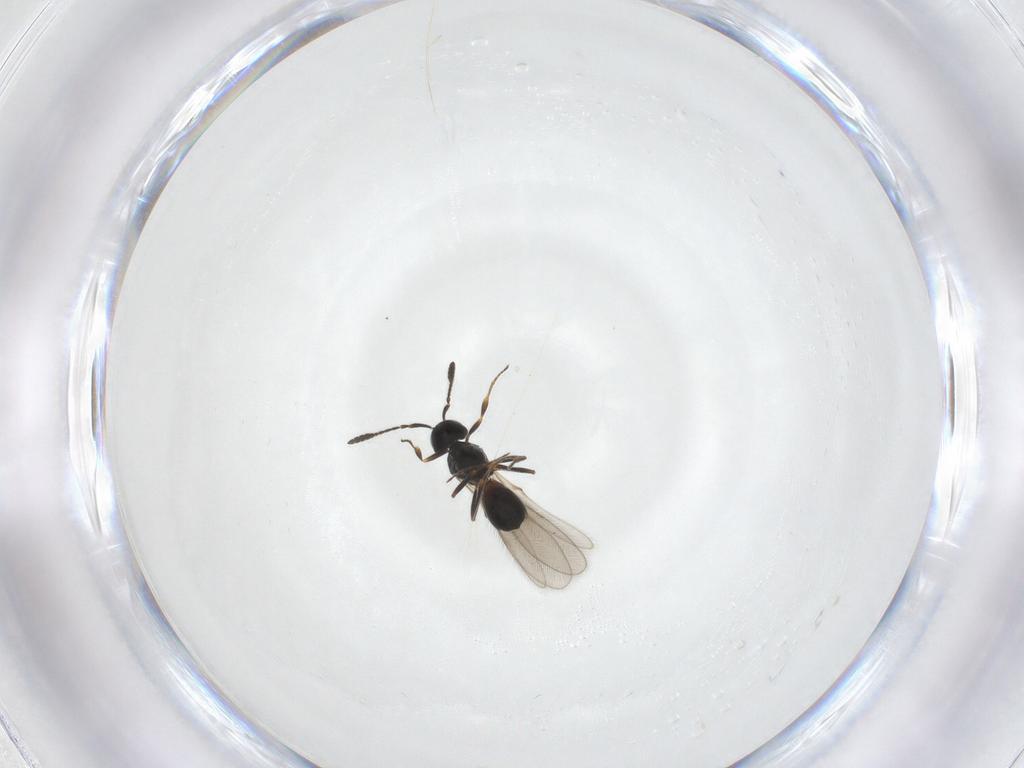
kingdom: Animalia
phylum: Arthropoda
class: Insecta
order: Hymenoptera
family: Scelionidae
